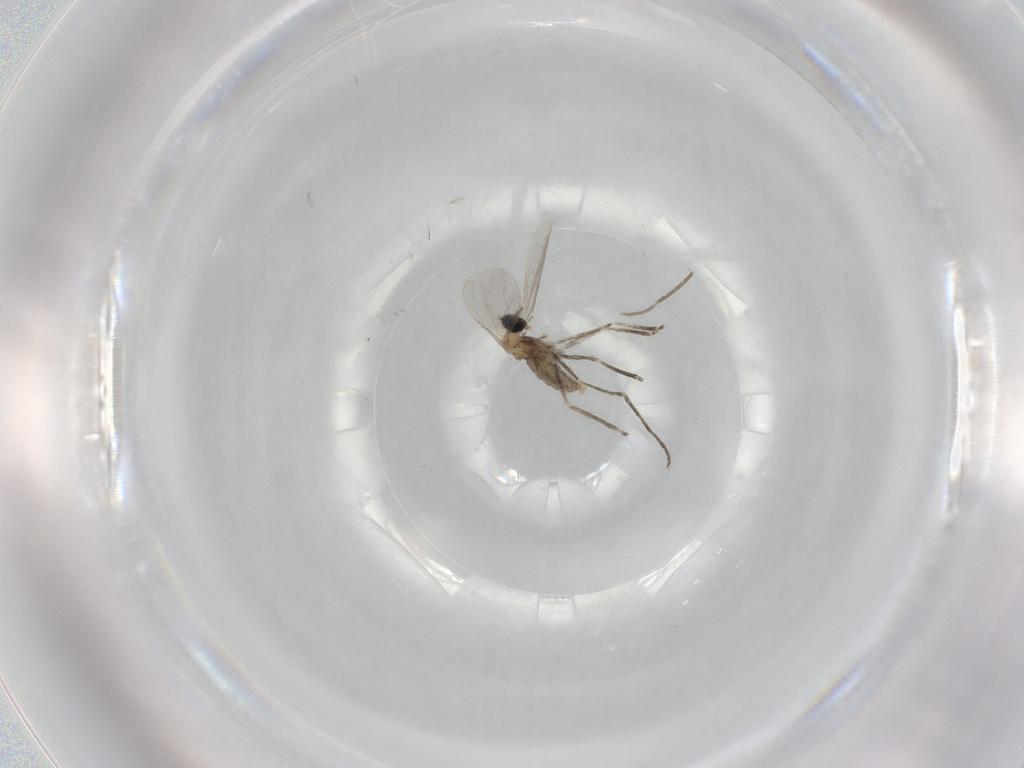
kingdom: Animalia
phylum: Arthropoda
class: Insecta
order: Diptera
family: Cecidomyiidae
